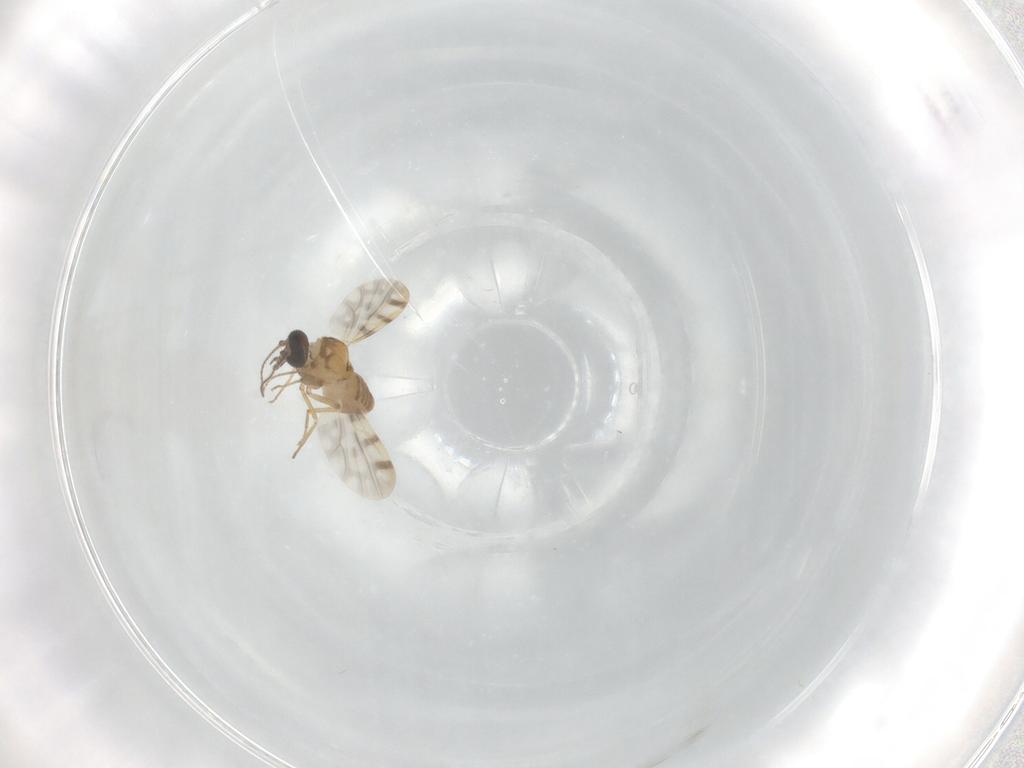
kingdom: Animalia
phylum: Arthropoda
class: Insecta
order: Diptera
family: Ceratopogonidae
